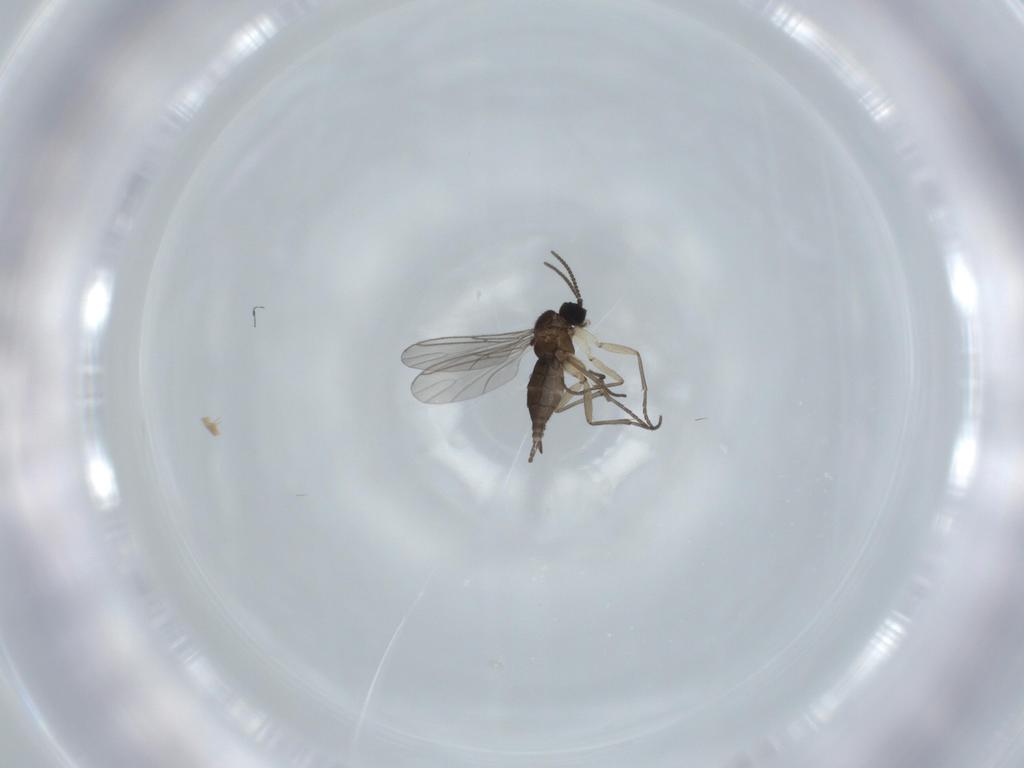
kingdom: Animalia
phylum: Arthropoda
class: Insecta
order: Diptera
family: Sciaridae
